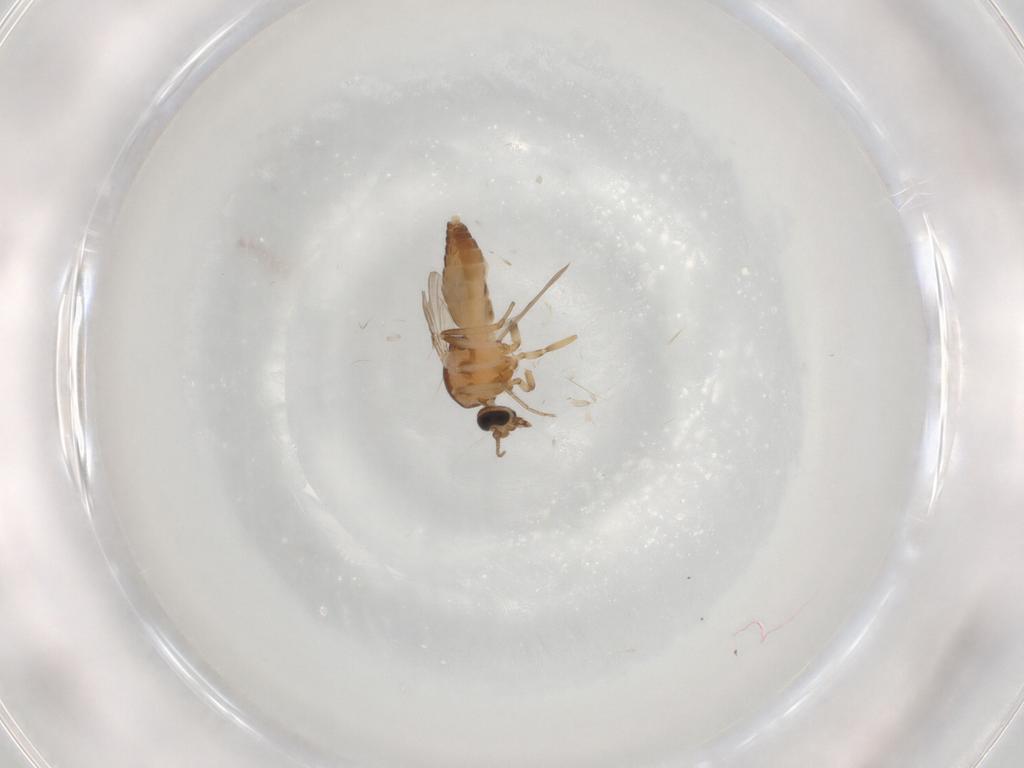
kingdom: Animalia
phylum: Arthropoda
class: Insecta
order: Diptera
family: Ceratopogonidae
